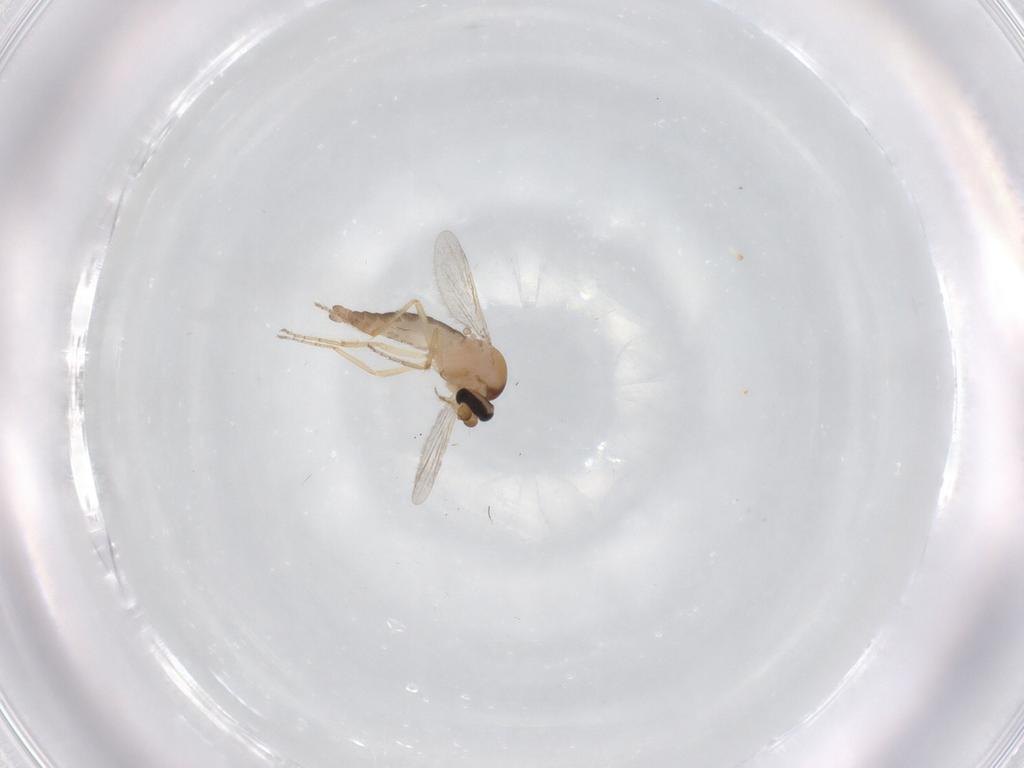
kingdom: Animalia
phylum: Arthropoda
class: Insecta
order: Diptera
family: Ceratopogonidae
